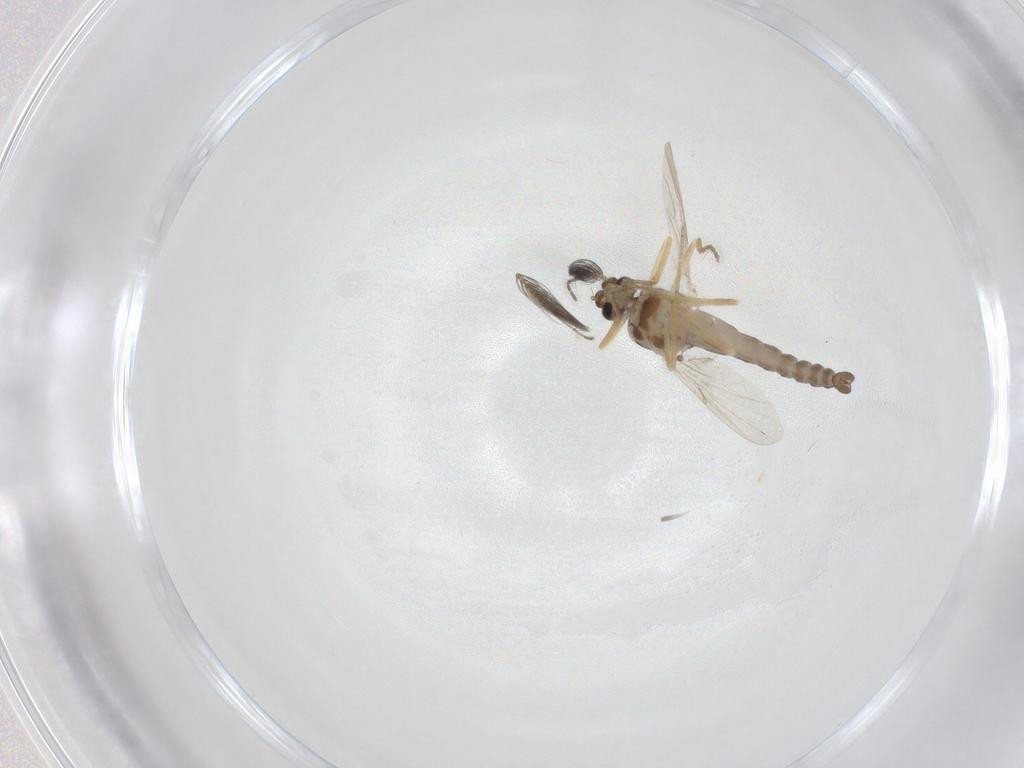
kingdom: Animalia
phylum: Arthropoda
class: Insecta
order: Diptera
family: Ceratopogonidae
